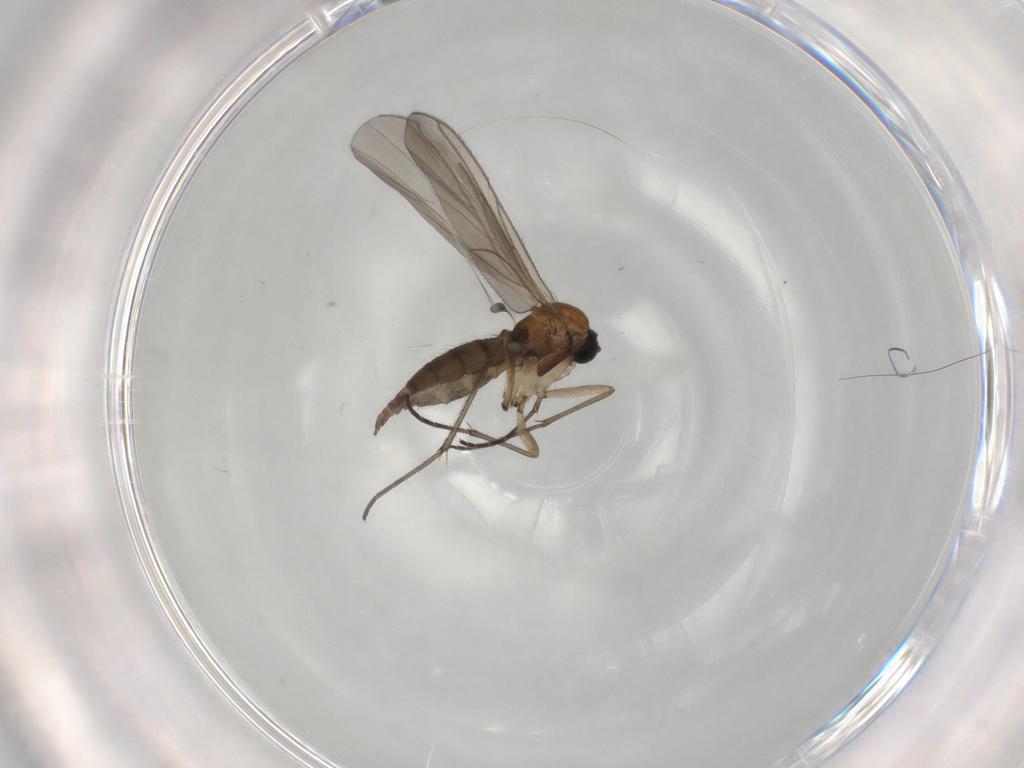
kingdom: Animalia
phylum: Arthropoda
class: Insecta
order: Diptera
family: Sciaridae
